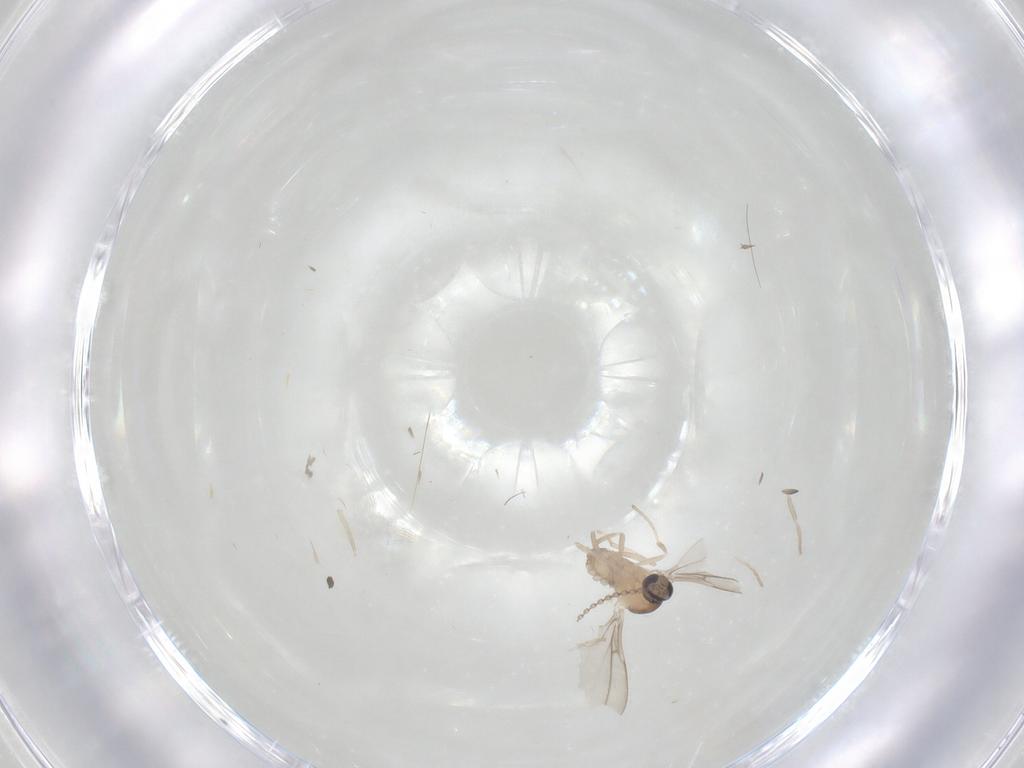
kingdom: Animalia
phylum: Arthropoda
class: Insecta
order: Diptera
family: Cecidomyiidae
